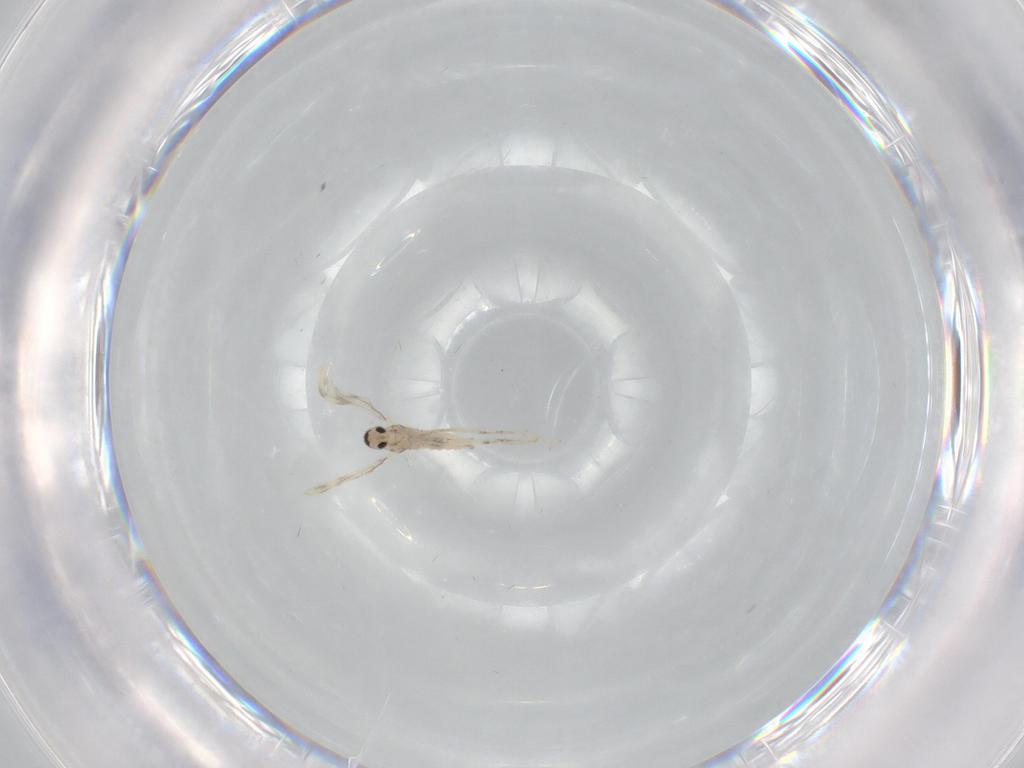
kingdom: Animalia
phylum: Arthropoda
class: Insecta
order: Diptera
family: Cecidomyiidae
